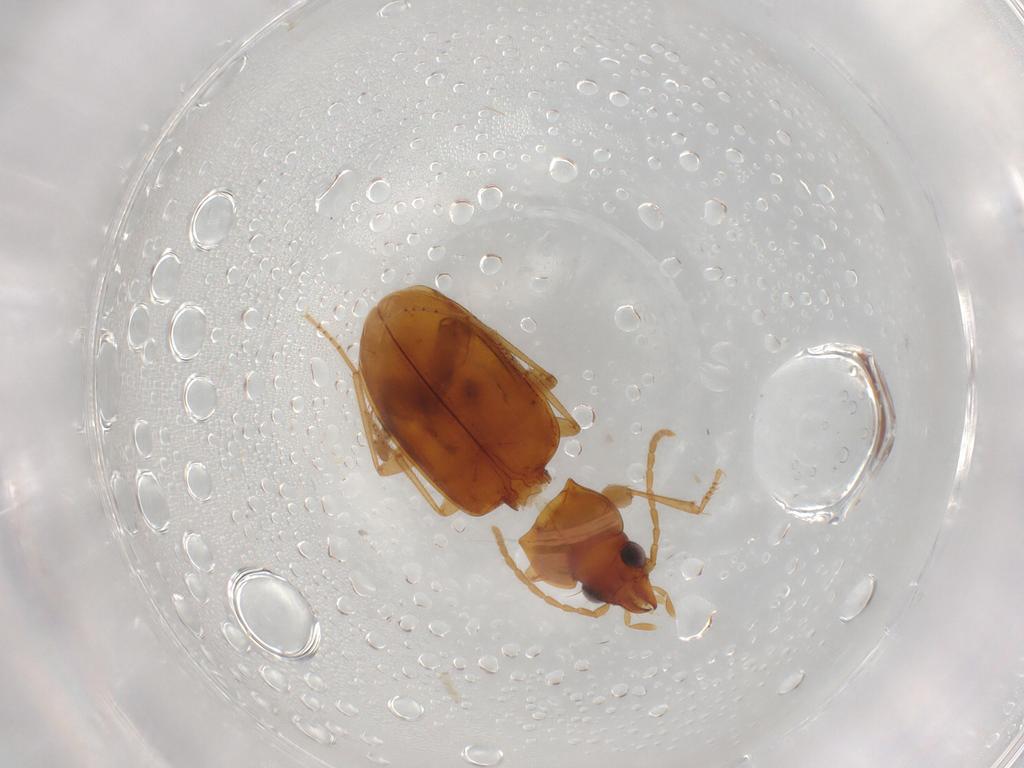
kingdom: Animalia
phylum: Arthropoda
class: Insecta
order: Coleoptera
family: Carabidae
